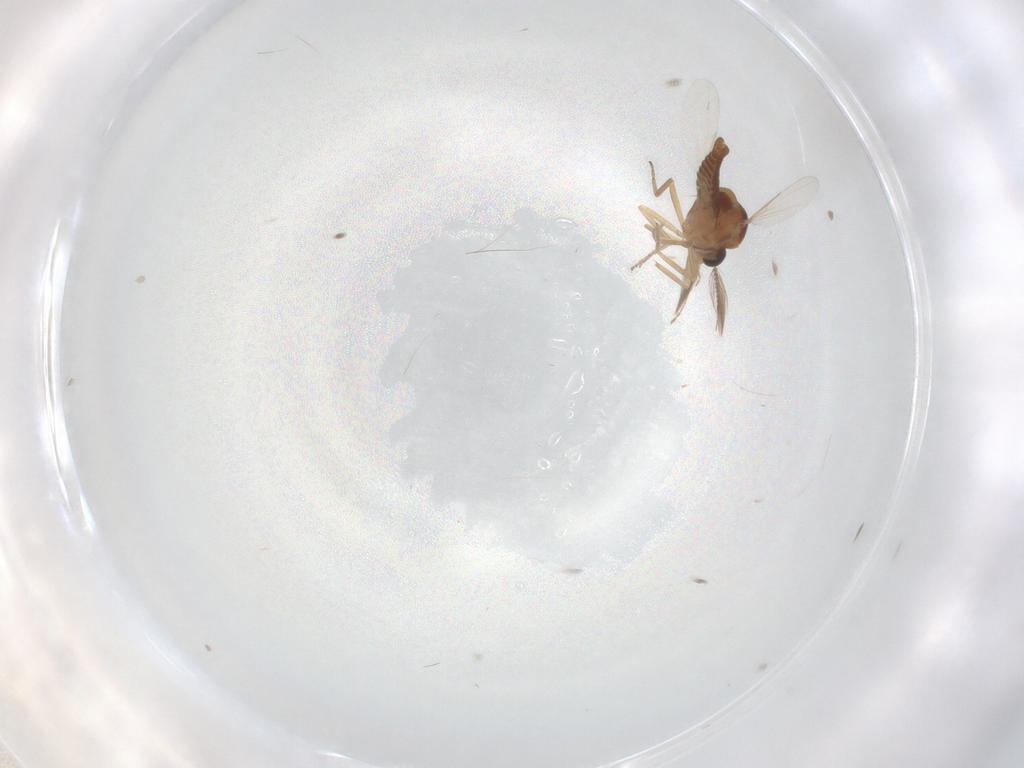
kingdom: Animalia
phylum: Arthropoda
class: Insecta
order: Diptera
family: Ceratopogonidae
